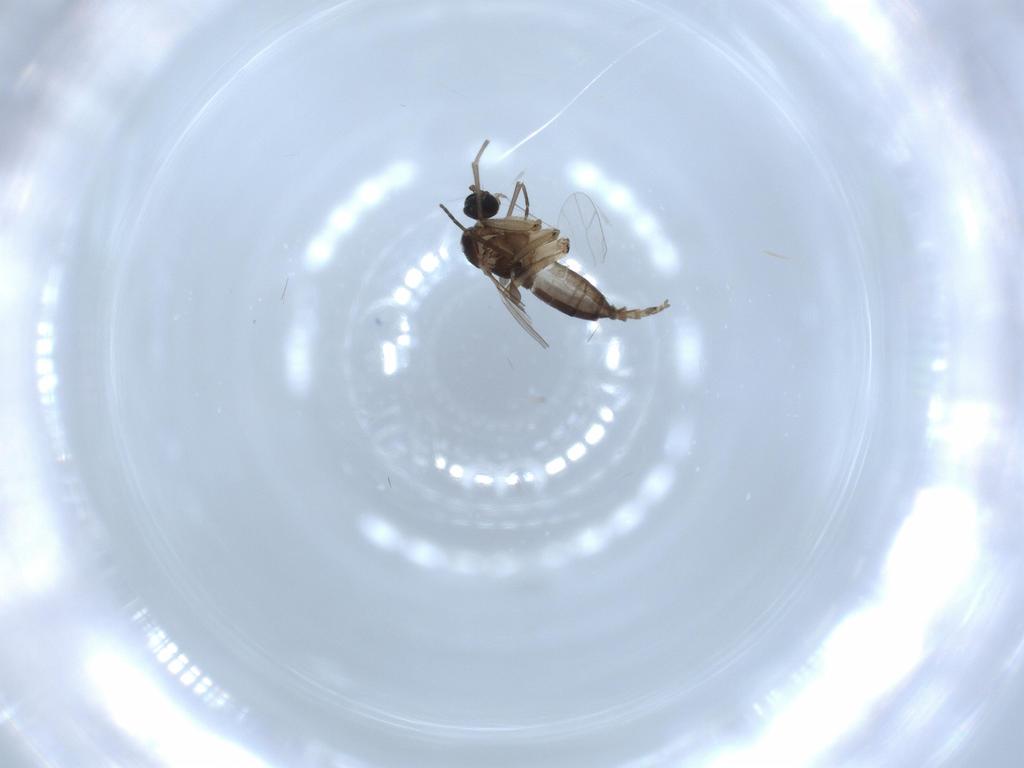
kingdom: Animalia
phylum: Arthropoda
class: Insecta
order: Diptera
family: Sciaridae
